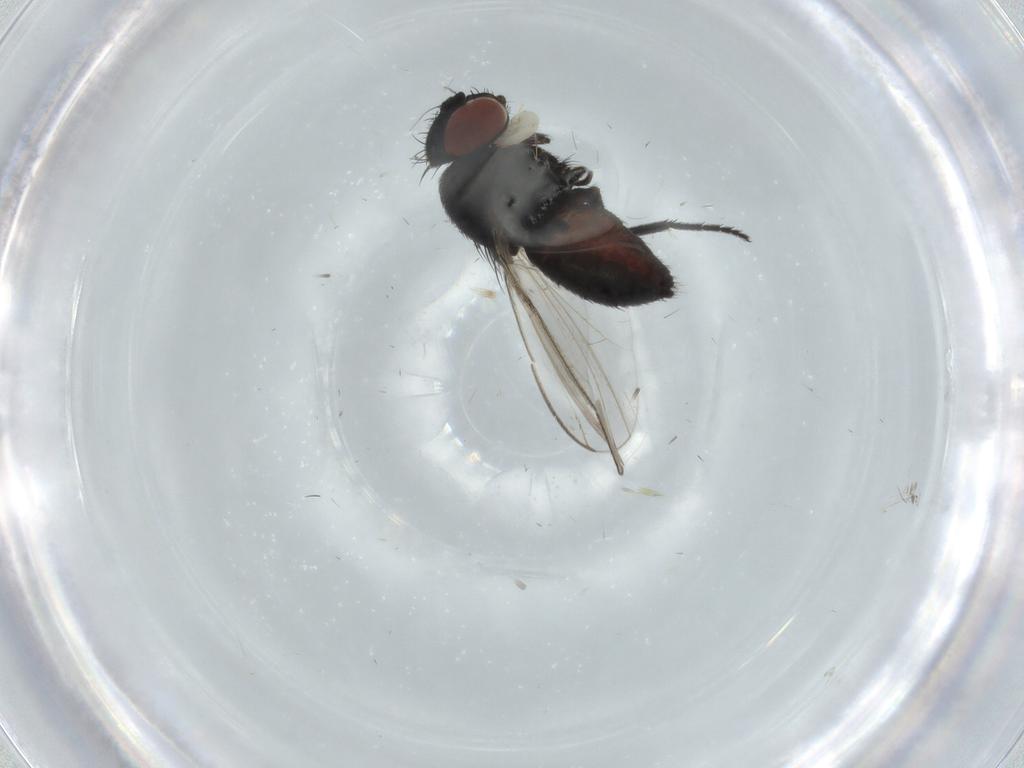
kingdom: Animalia
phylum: Arthropoda
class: Insecta
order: Diptera
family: Milichiidae
